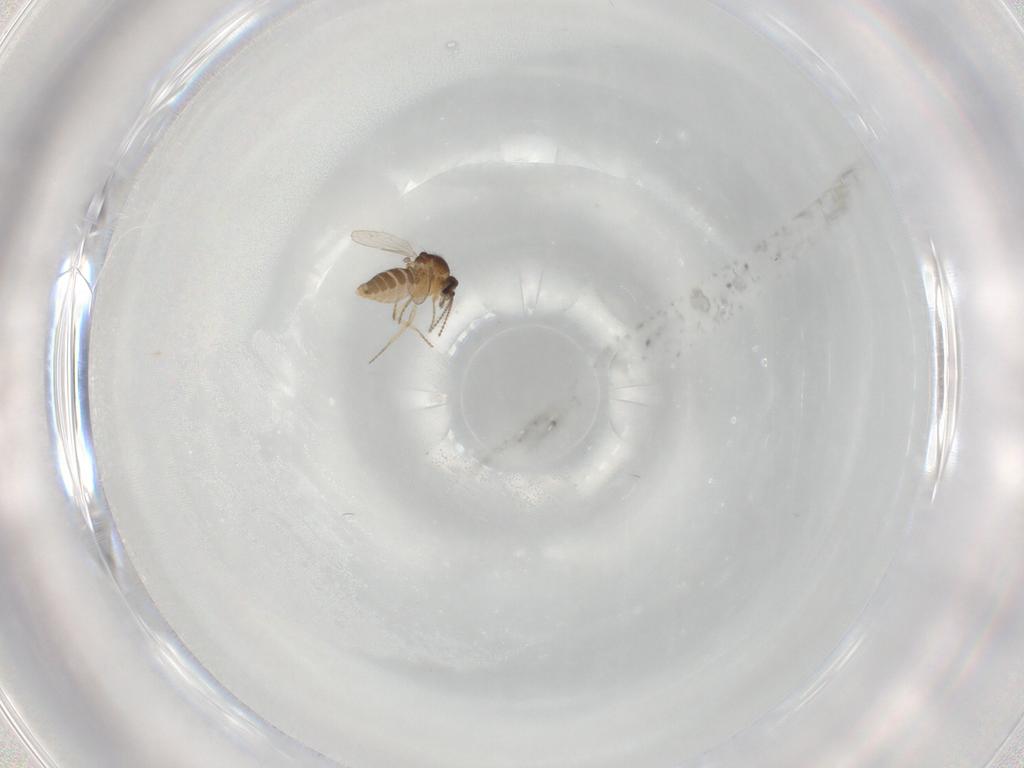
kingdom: Animalia
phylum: Arthropoda
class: Insecta
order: Diptera
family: Ceratopogonidae
